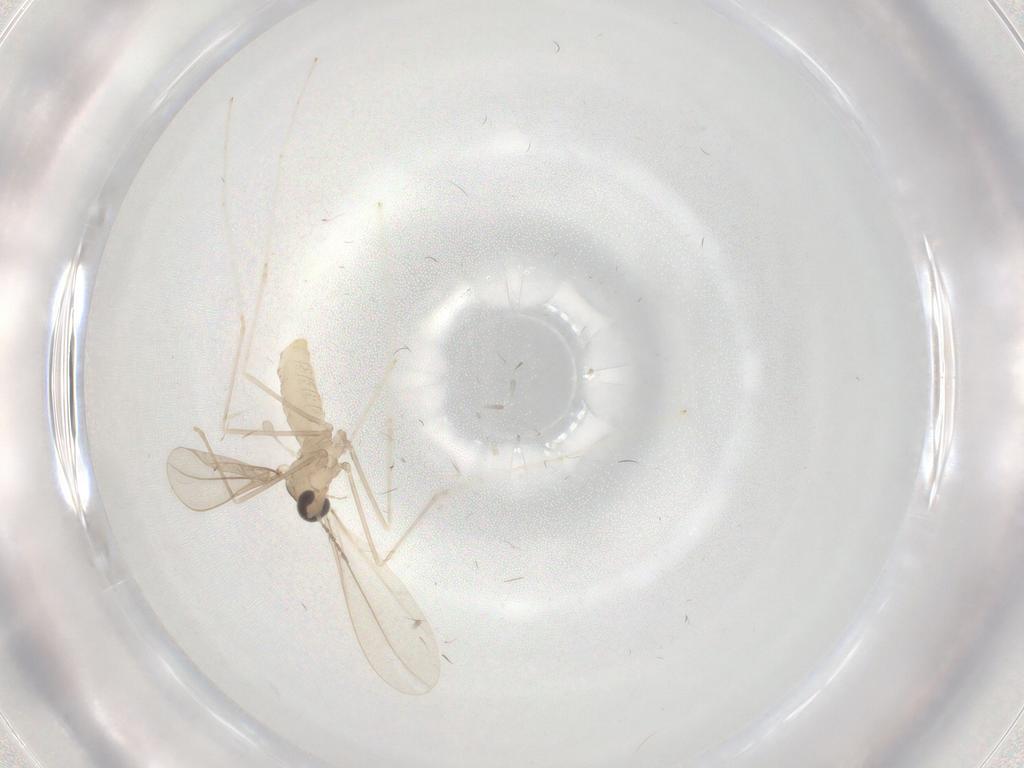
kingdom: Animalia
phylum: Arthropoda
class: Insecta
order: Diptera
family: Cecidomyiidae
